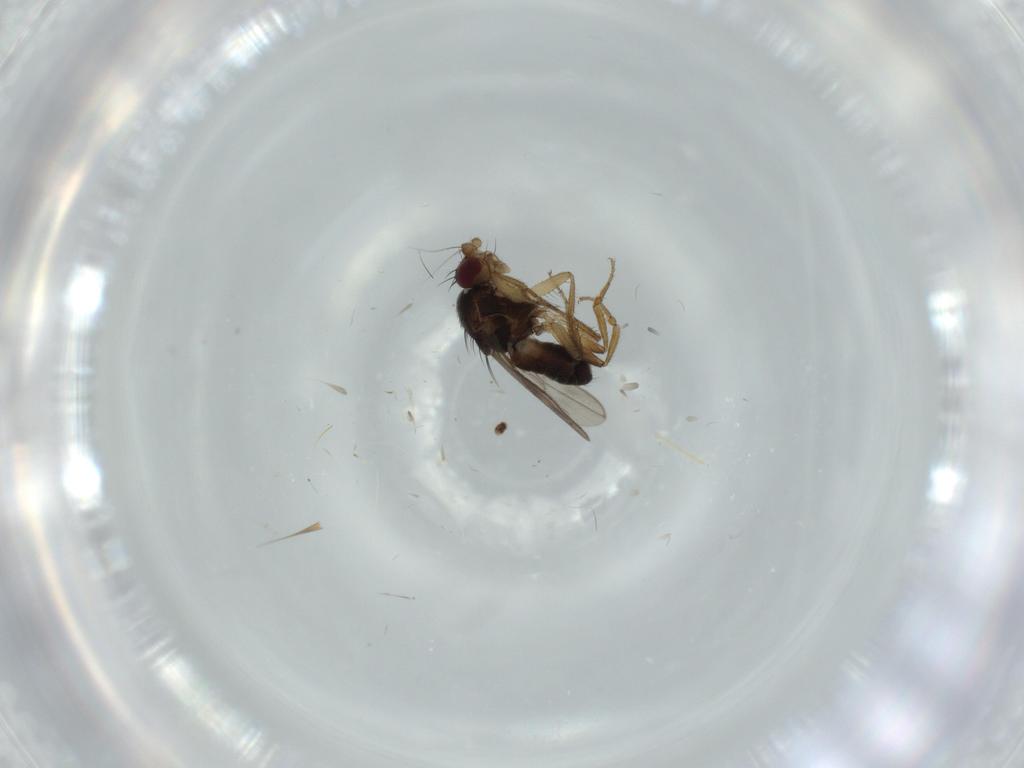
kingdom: Animalia
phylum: Arthropoda
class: Insecta
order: Diptera
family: Sphaeroceridae
